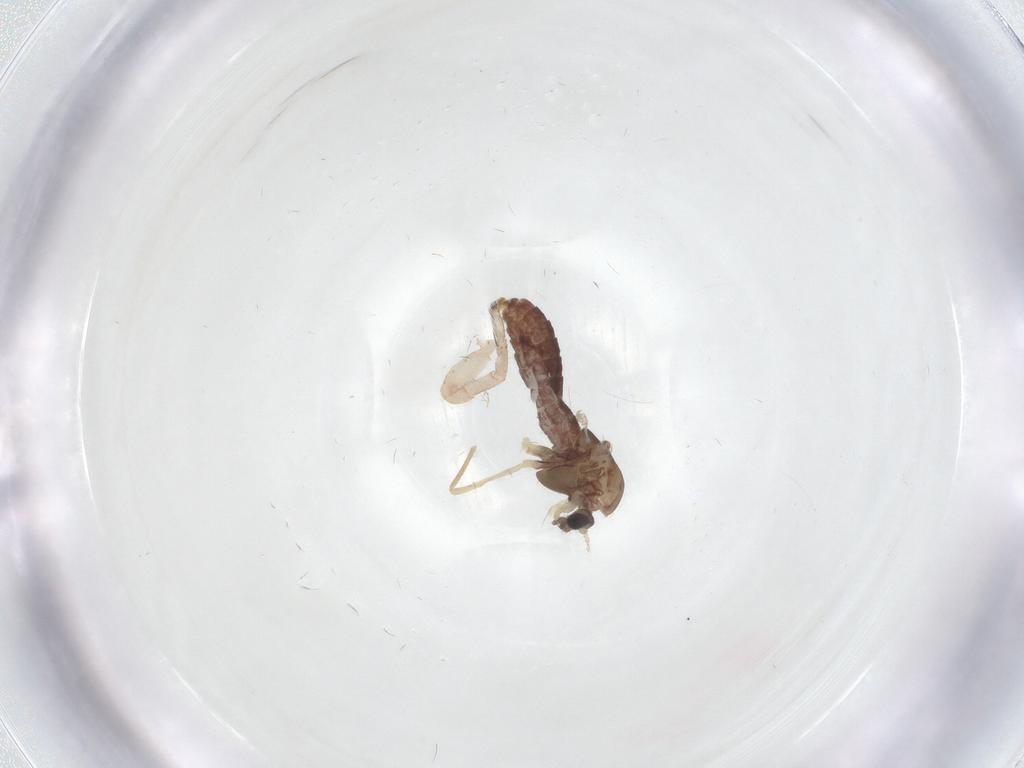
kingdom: Animalia
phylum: Arthropoda
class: Insecta
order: Diptera
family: Chironomidae
